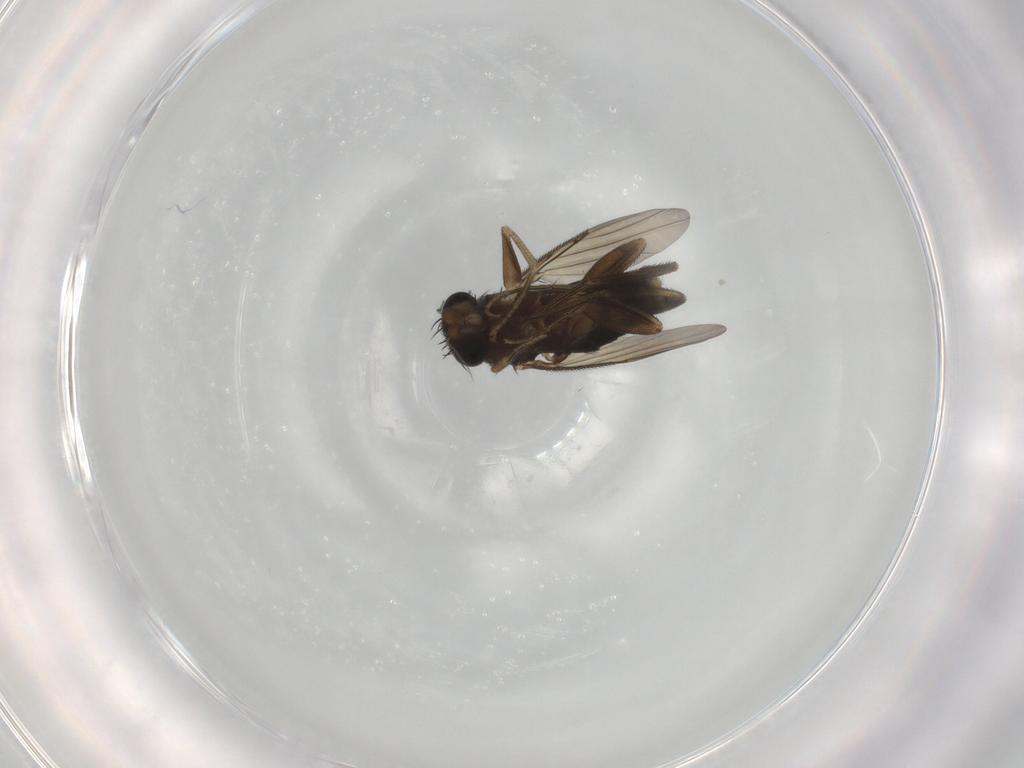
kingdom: Animalia
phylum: Arthropoda
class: Insecta
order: Diptera
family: Phoridae
